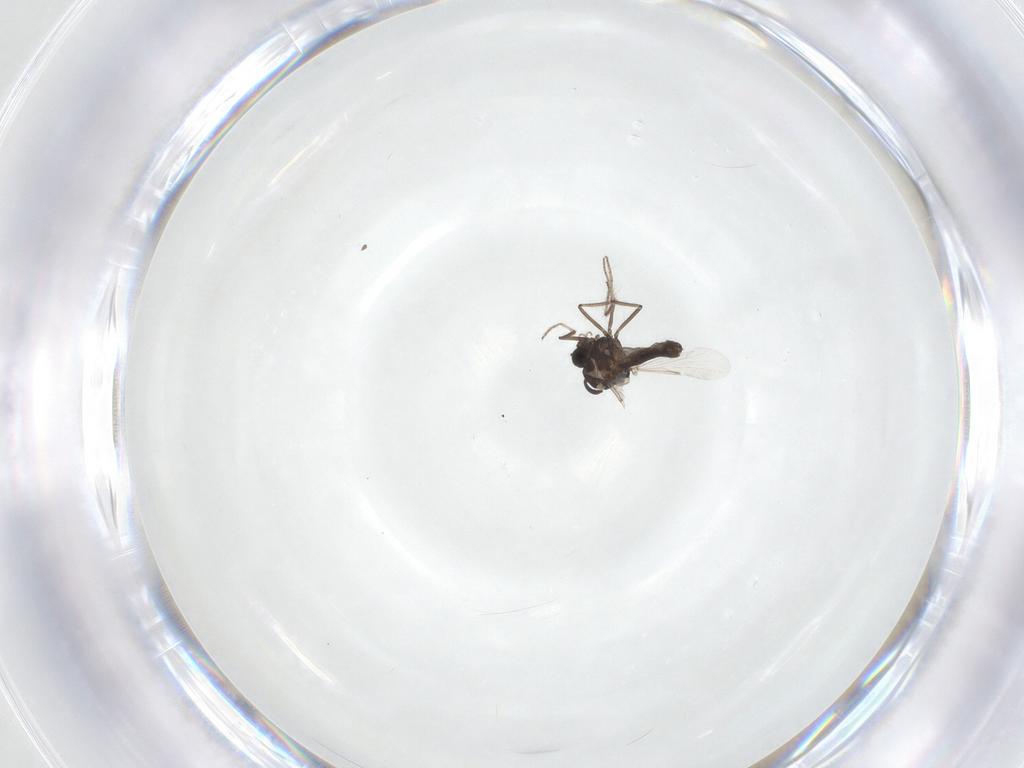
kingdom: Animalia
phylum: Arthropoda
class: Insecta
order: Diptera
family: Ceratopogonidae
